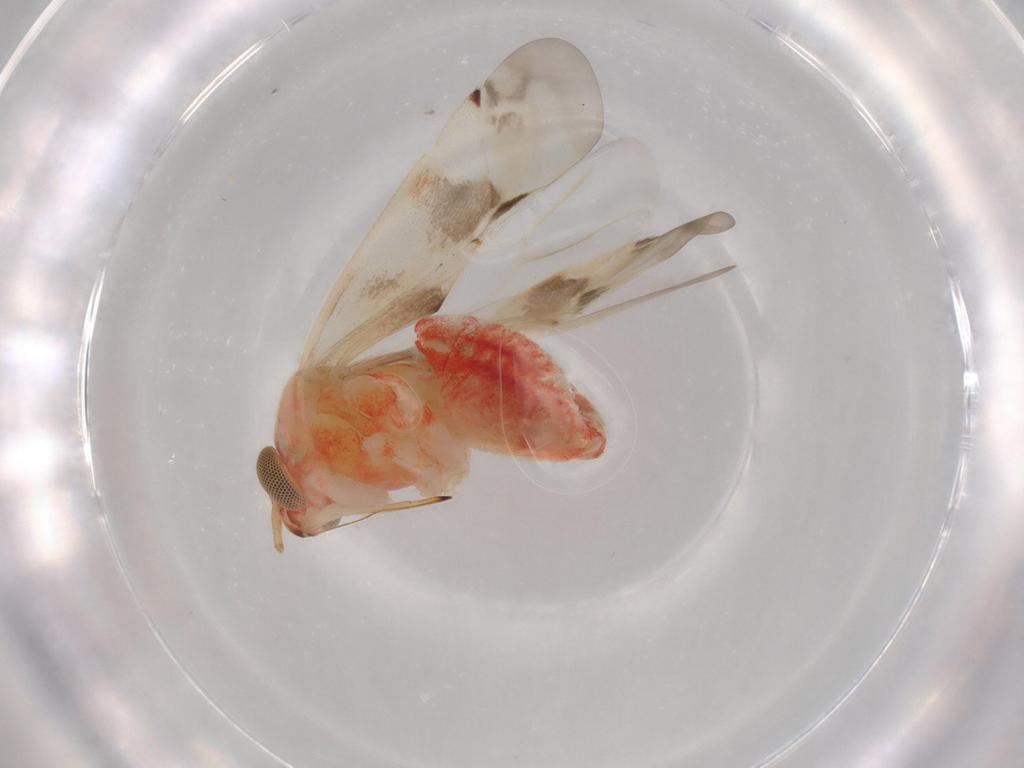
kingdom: Animalia
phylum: Arthropoda
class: Insecta
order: Hemiptera
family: Miridae
